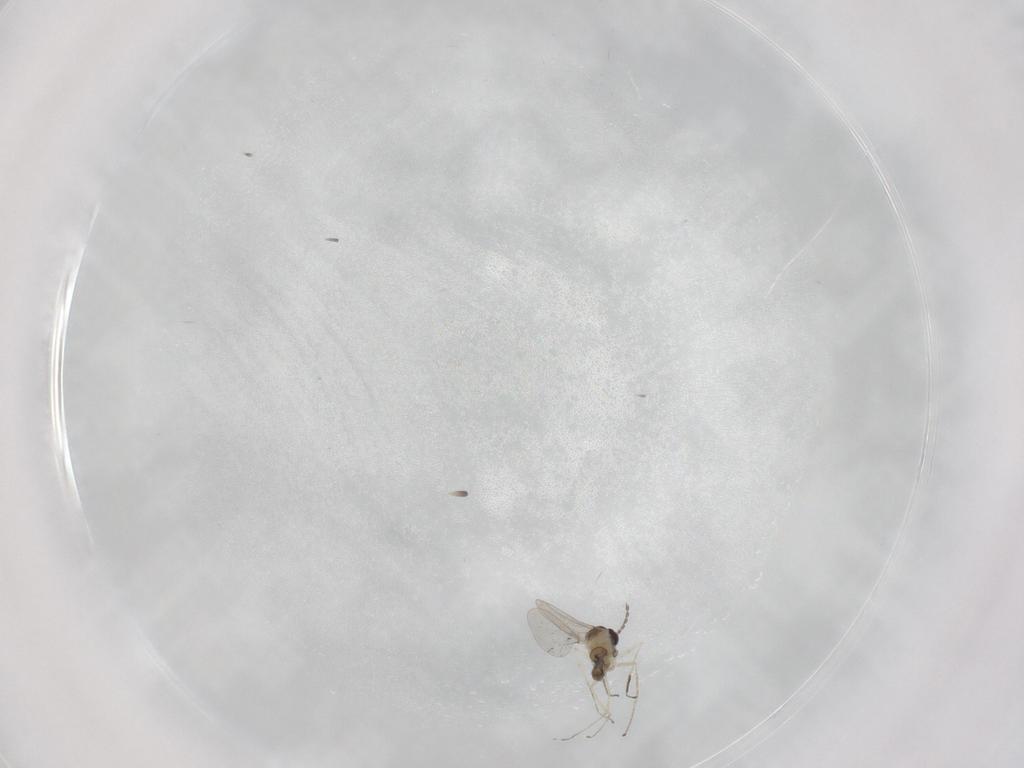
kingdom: Animalia
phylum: Arthropoda
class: Insecta
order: Diptera
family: Cecidomyiidae
